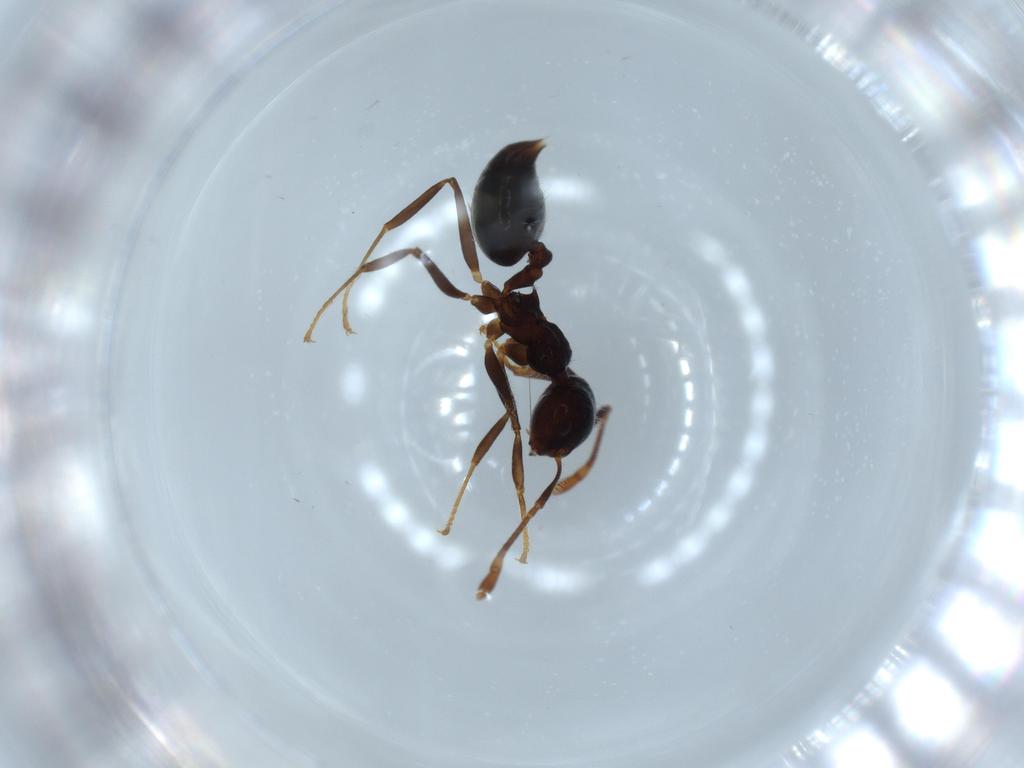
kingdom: Animalia
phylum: Arthropoda
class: Insecta
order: Hymenoptera
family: Formicidae
